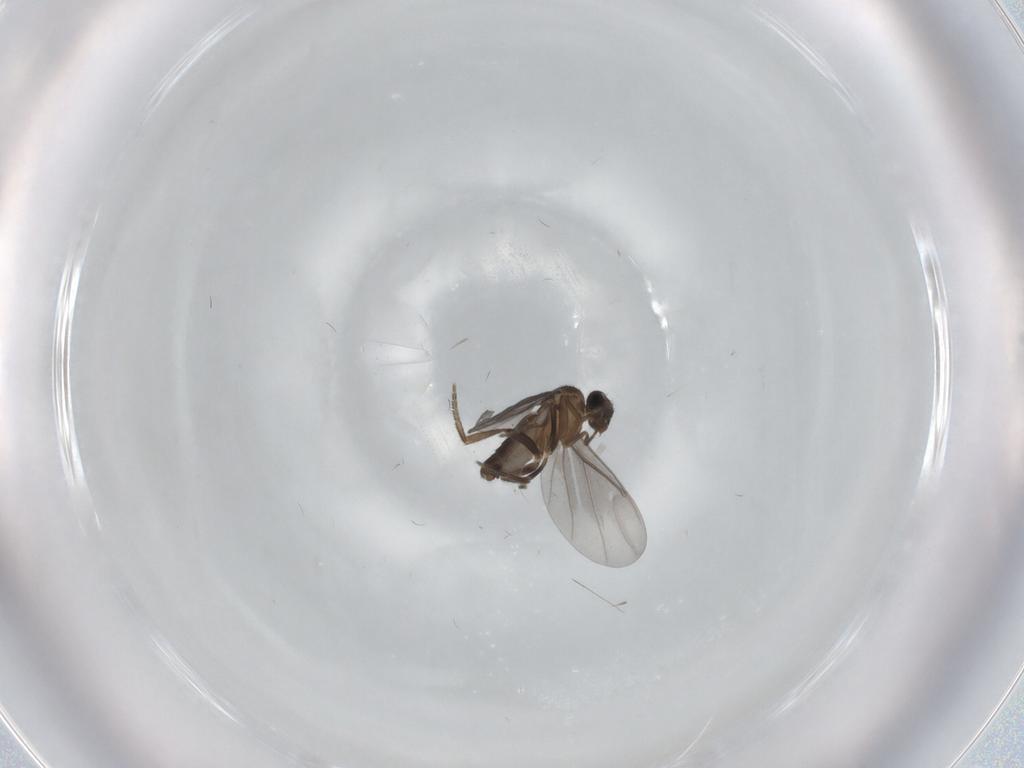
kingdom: Animalia
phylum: Arthropoda
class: Insecta
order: Diptera
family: Phoridae
